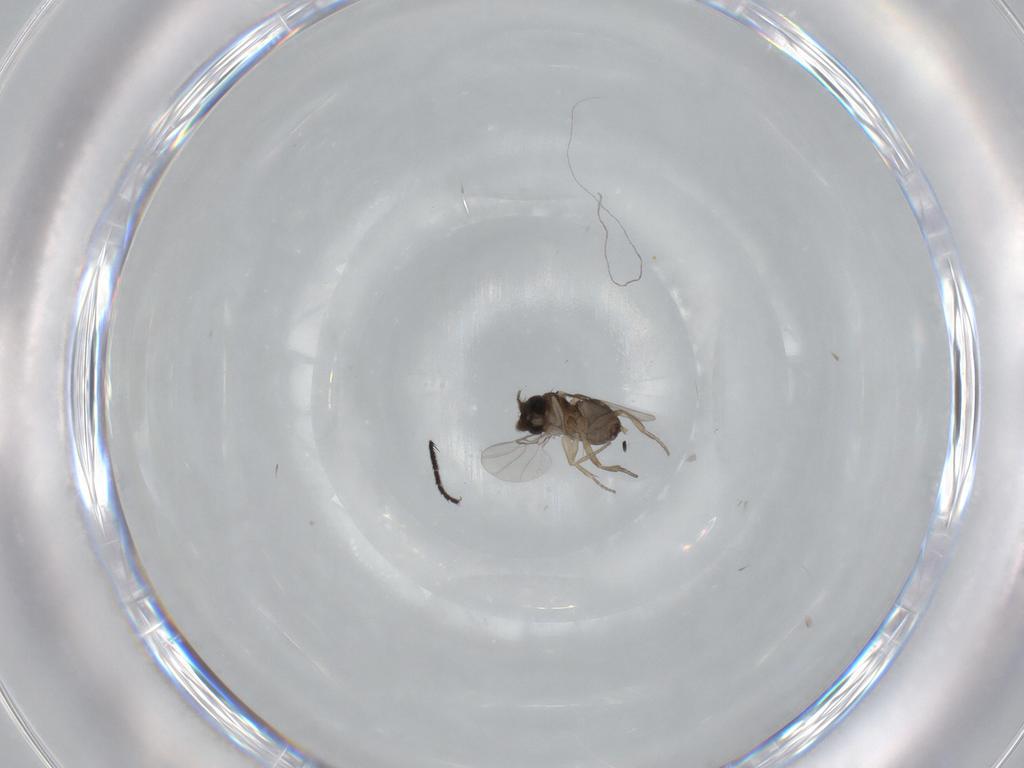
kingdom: Animalia
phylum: Arthropoda
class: Insecta
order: Diptera
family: Phoridae
